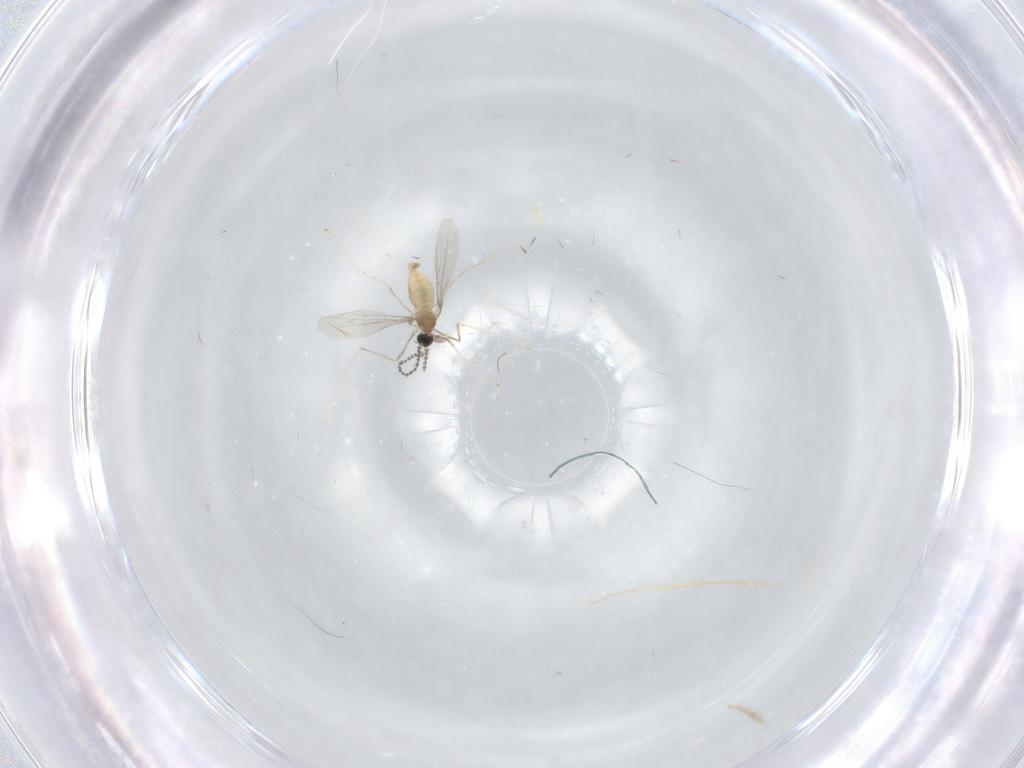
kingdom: Animalia
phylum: Arthropoda
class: Insecta
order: Diptera
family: Cecidomyiidae
